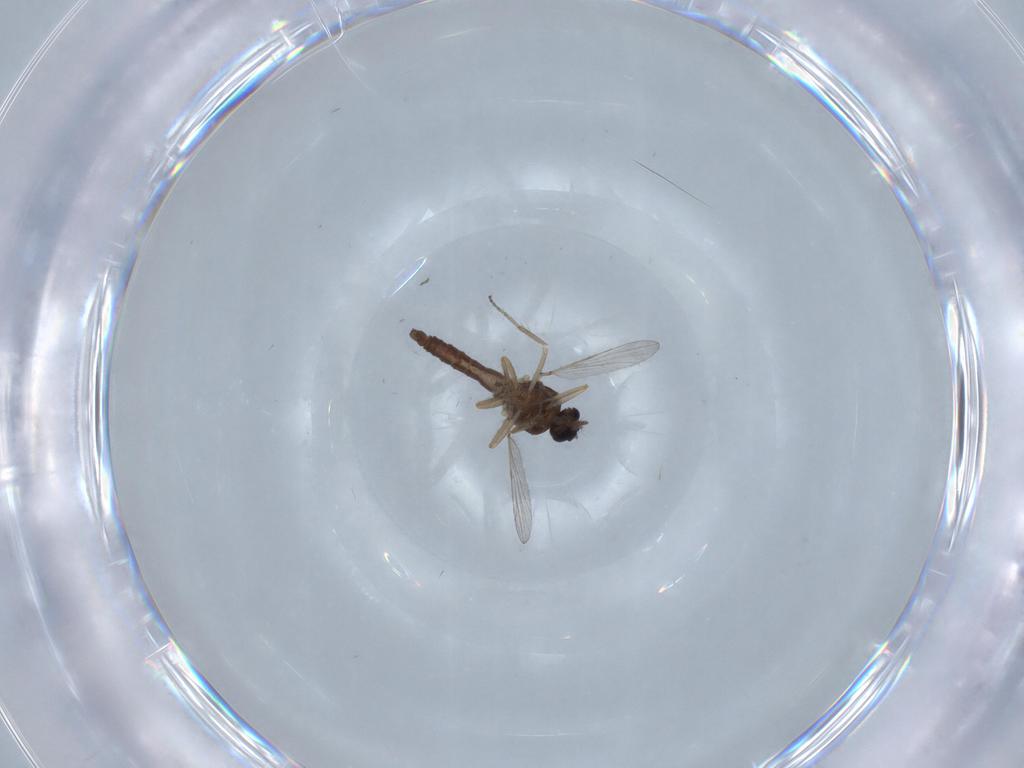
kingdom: Animalia
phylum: Arthropoda
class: Insecta
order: Diptera
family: Ceratopogonidae
